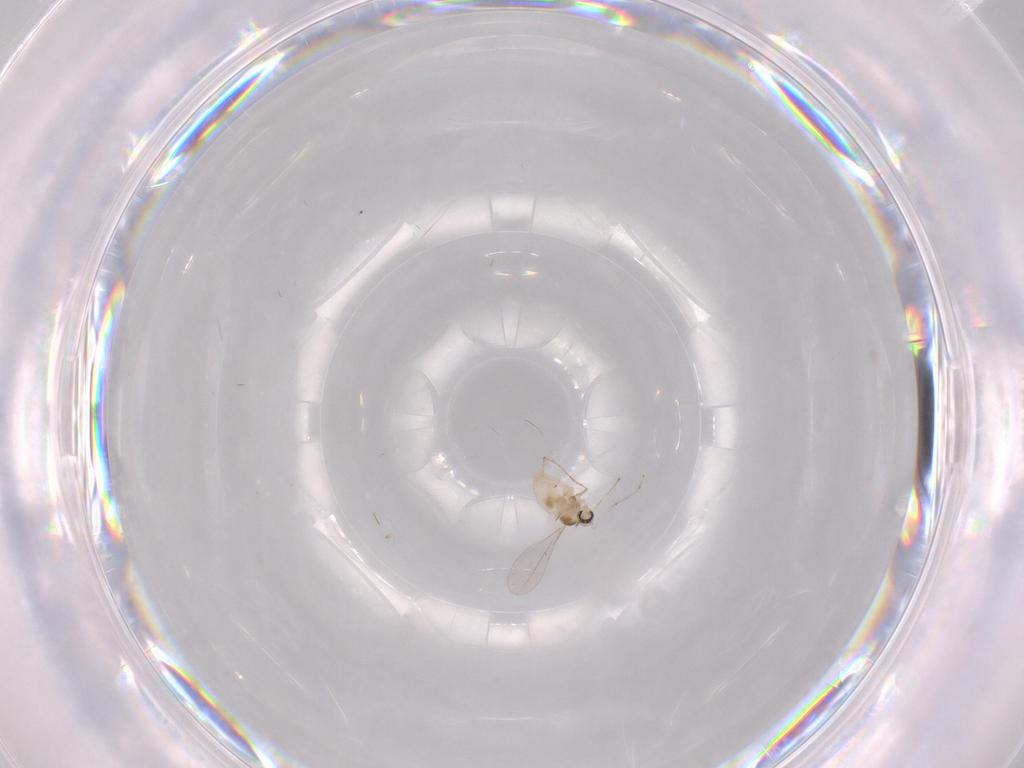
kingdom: Animalia
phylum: Arthropoda
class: Insecta
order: Diptera
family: Cecidomyiidae
